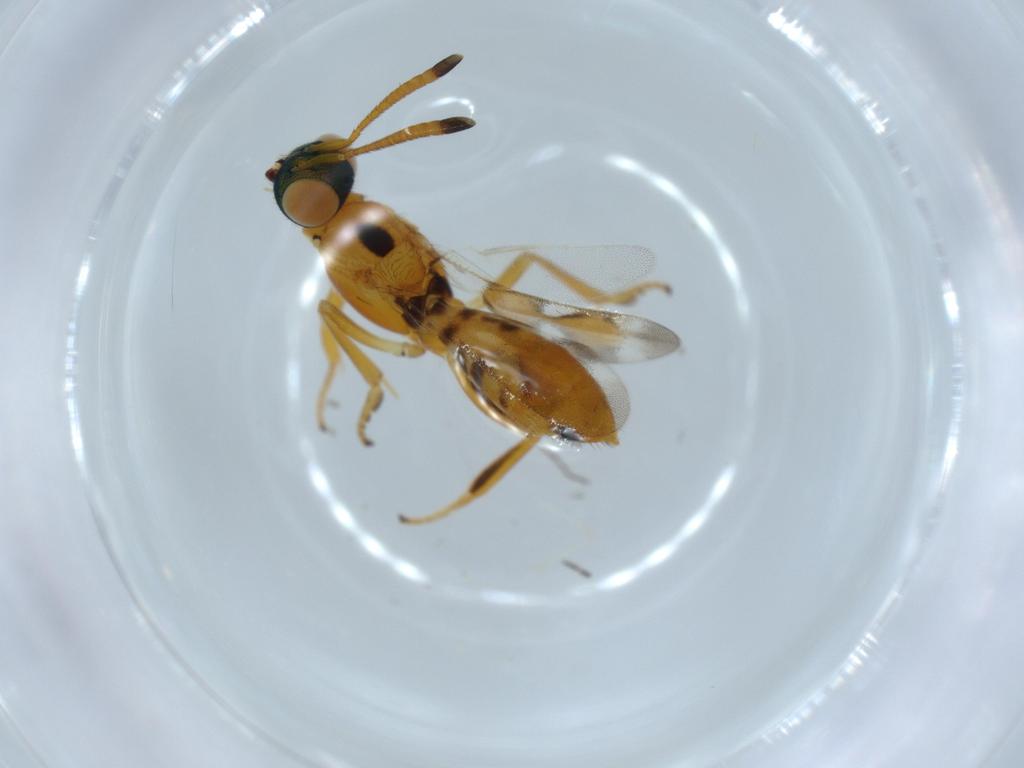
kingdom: Animalia
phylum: Arthropoda
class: Insecta
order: Hymenoptera
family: Eupelmidae
